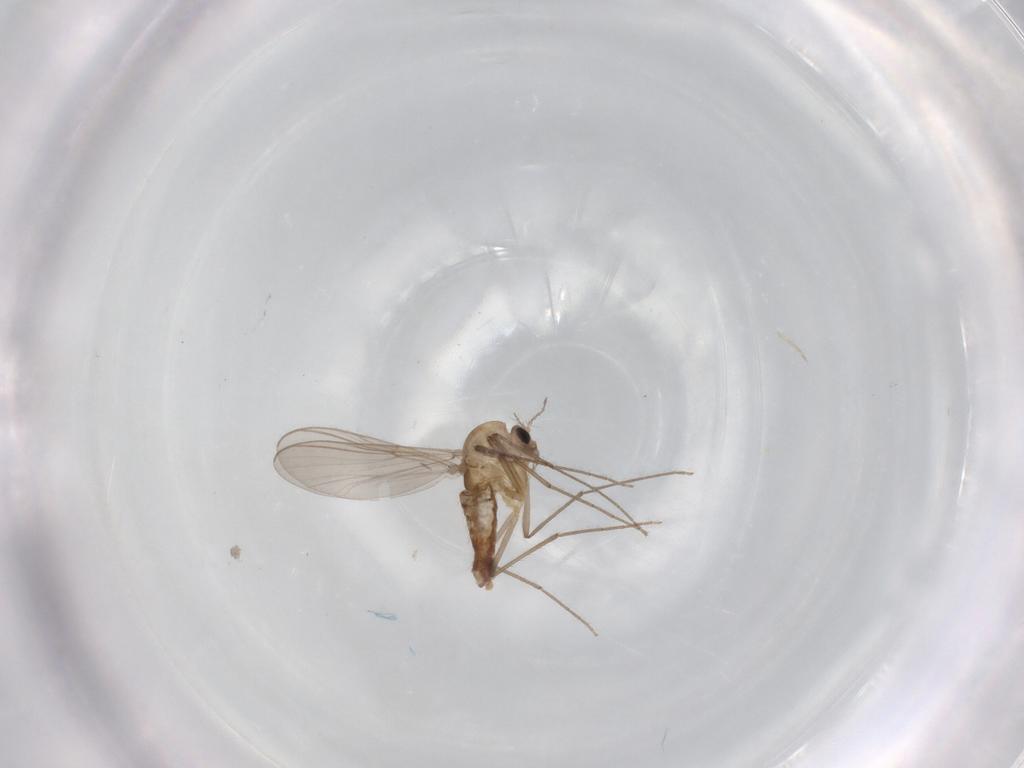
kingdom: Animalia
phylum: Arthropoda
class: Insecta
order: Diptera
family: Chironomidae
